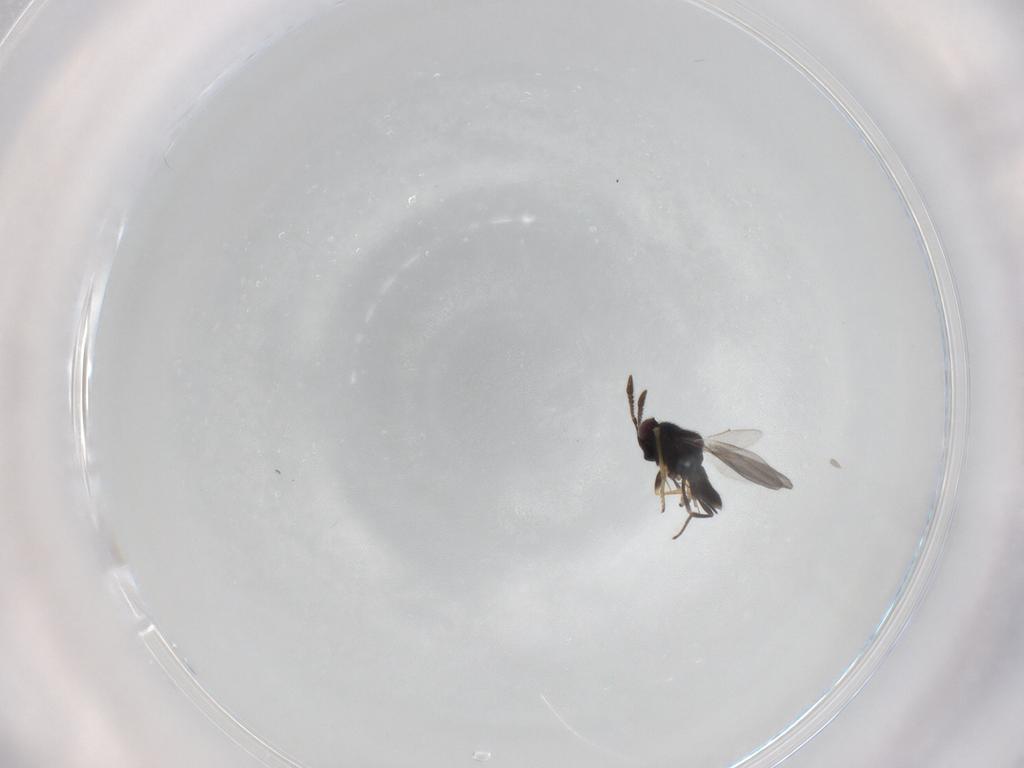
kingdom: Animalia
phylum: Arthropoda
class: Insecta
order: Hymenoptera
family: Encyrtidae
